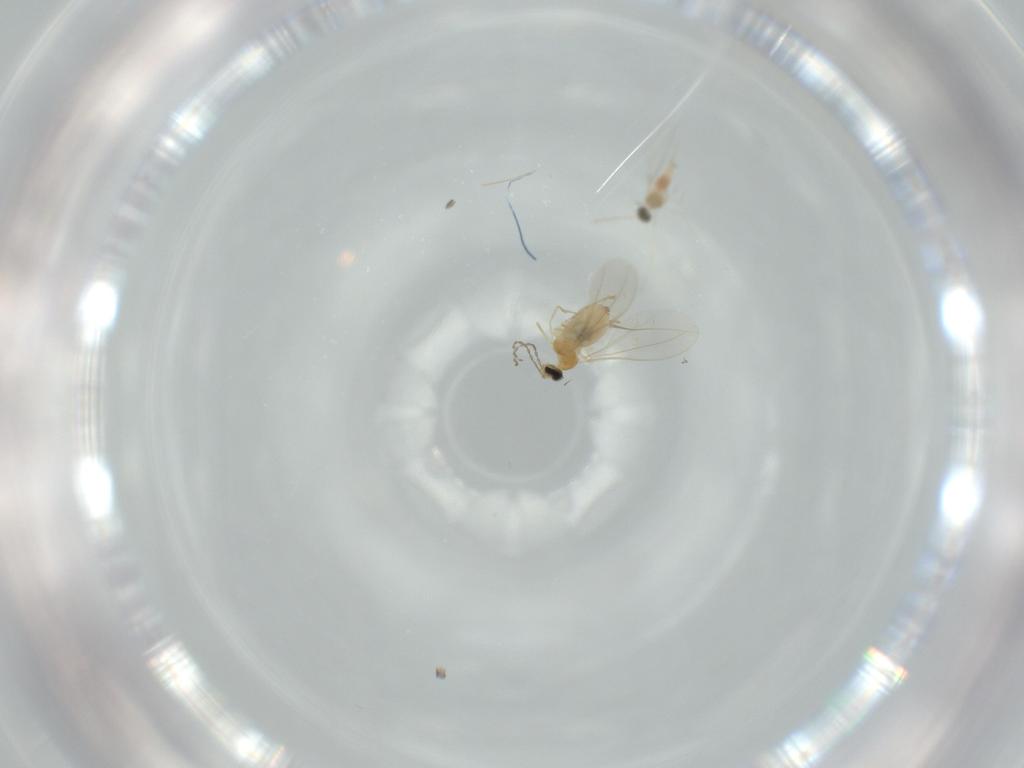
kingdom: Animalia
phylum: Arthropoda
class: Insecta
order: Diptera
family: Cecidomyiidae
